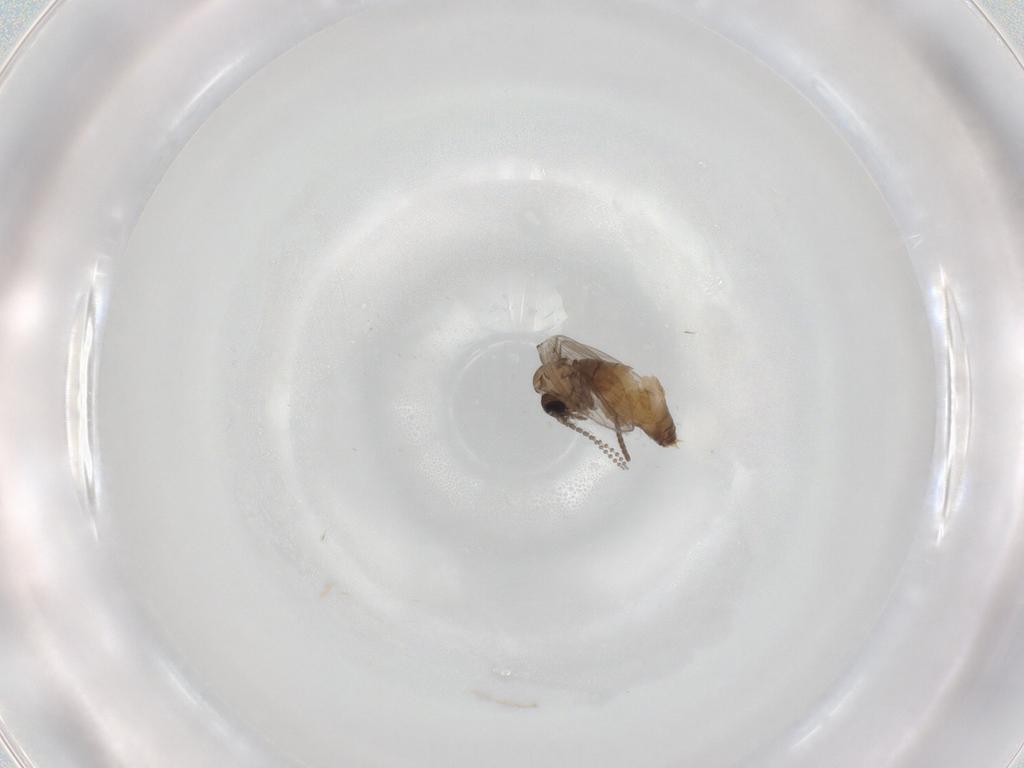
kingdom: Animalia
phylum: Arthropoda
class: Insecta
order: Diptera
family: Psychodidae
